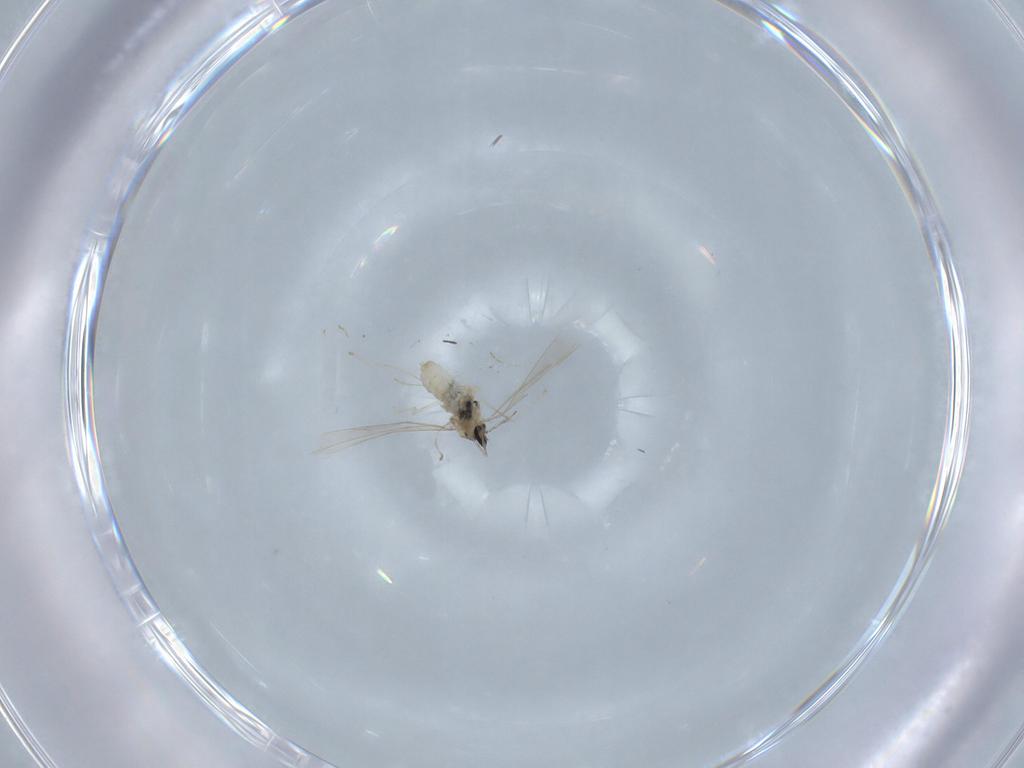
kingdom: Animalia
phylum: Arthropoda
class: Insecta
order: Diptera
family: Cecidomyiidae
